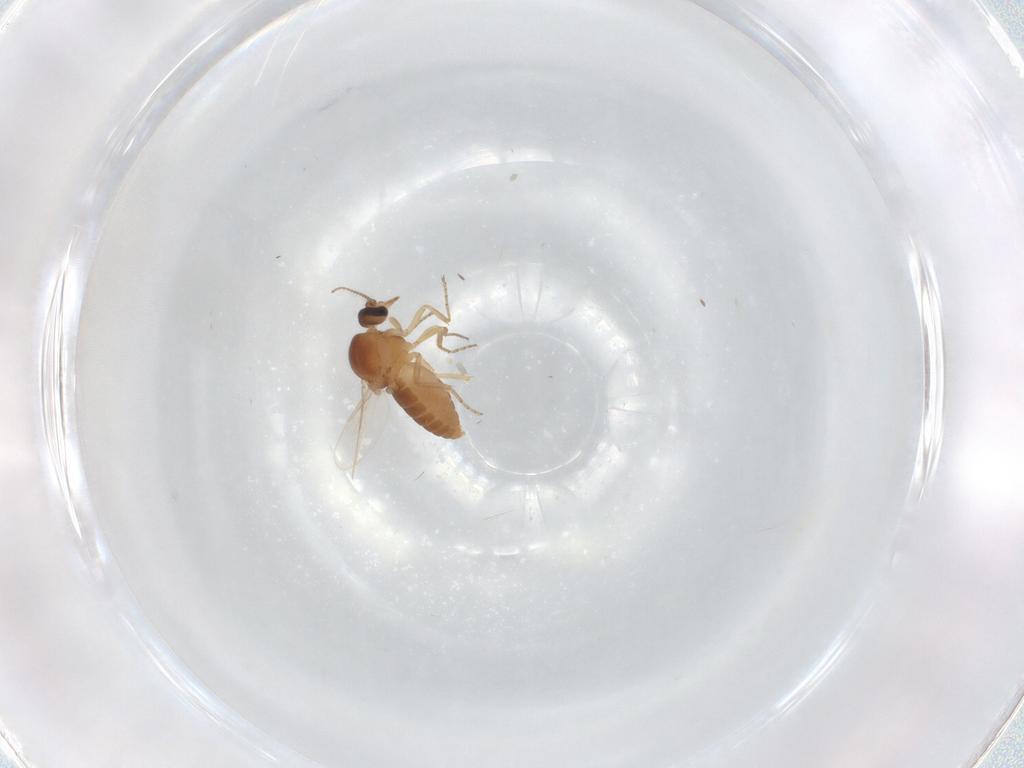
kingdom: Animalia
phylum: Arthropoda
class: Insecta
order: Diptera
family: Ceratopogonidae
